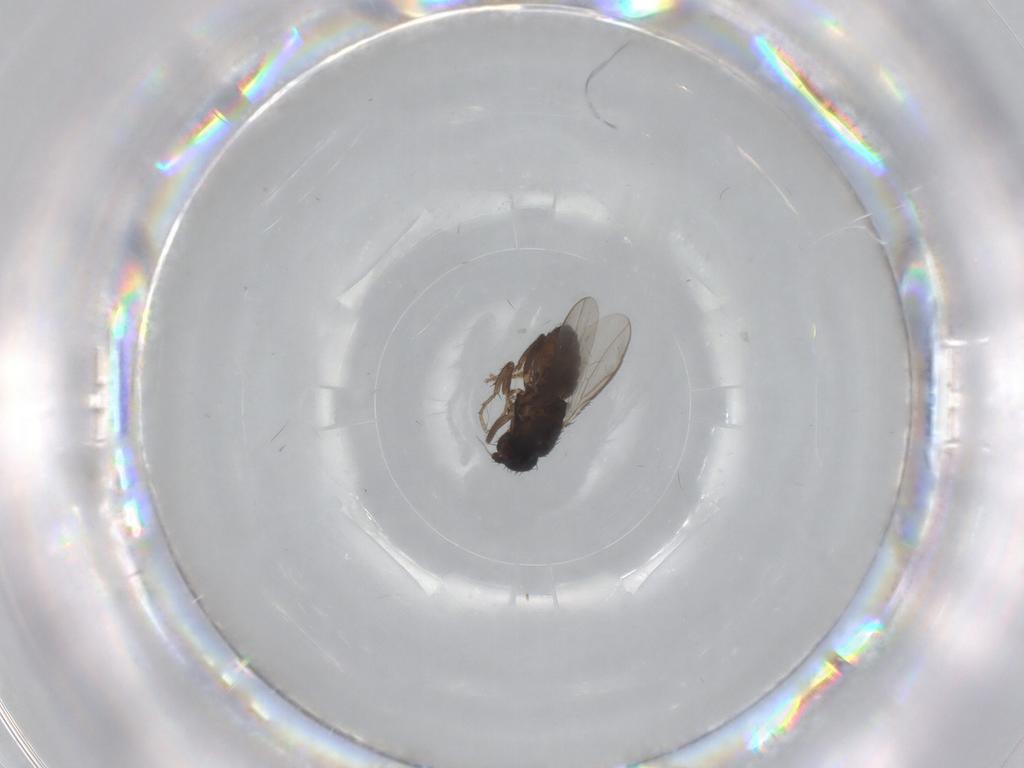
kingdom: Animalia
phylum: Arthropoda
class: Insecta
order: Diptera
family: Sphaeroceridae
